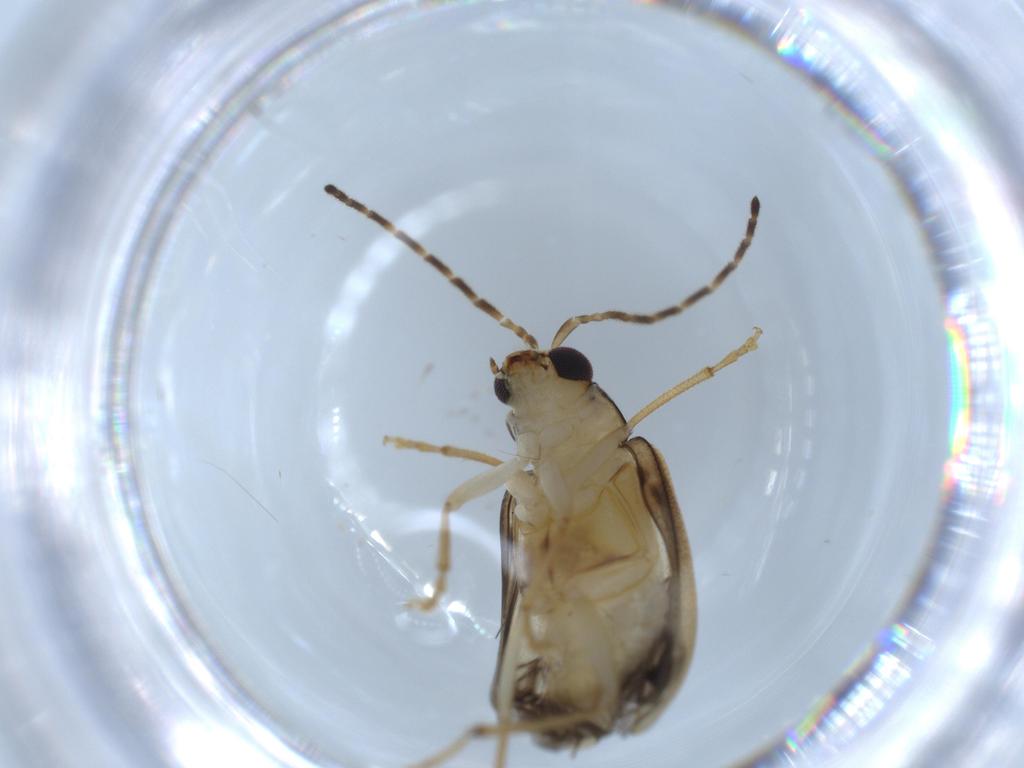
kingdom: Animalia
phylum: Arthropoda
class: Insecta
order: Coleoptera
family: Chrysomelidae
